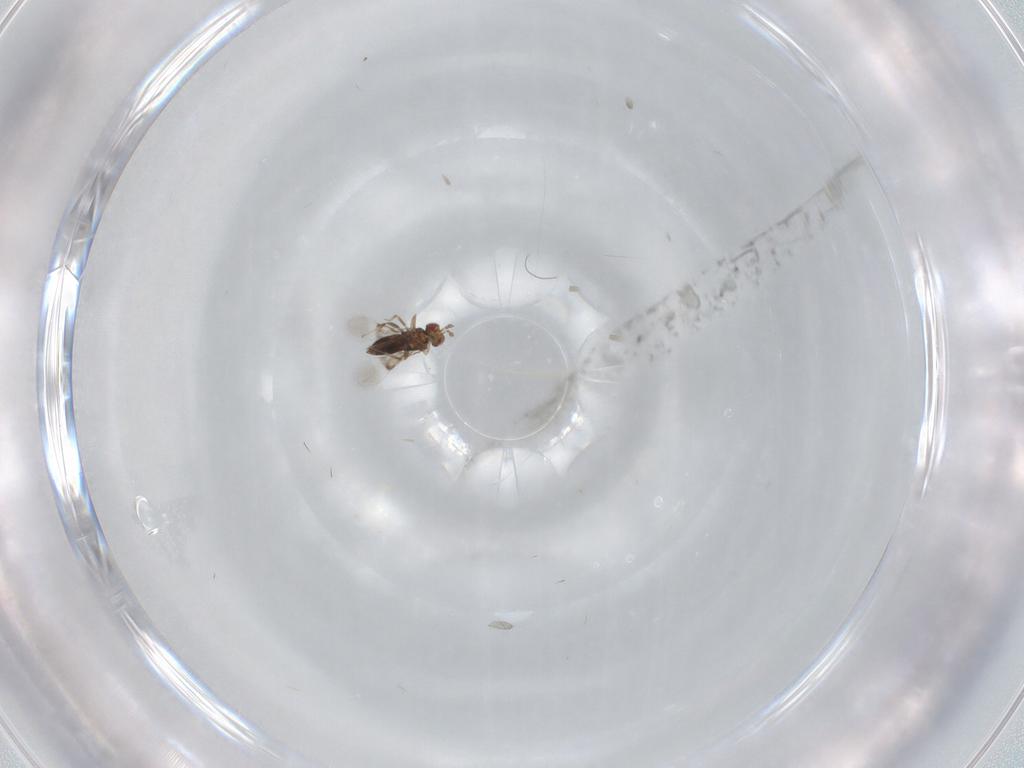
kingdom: Animalia
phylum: Arthropoda
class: Insecta
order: Hymenoptera
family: Trichogrammatidae
